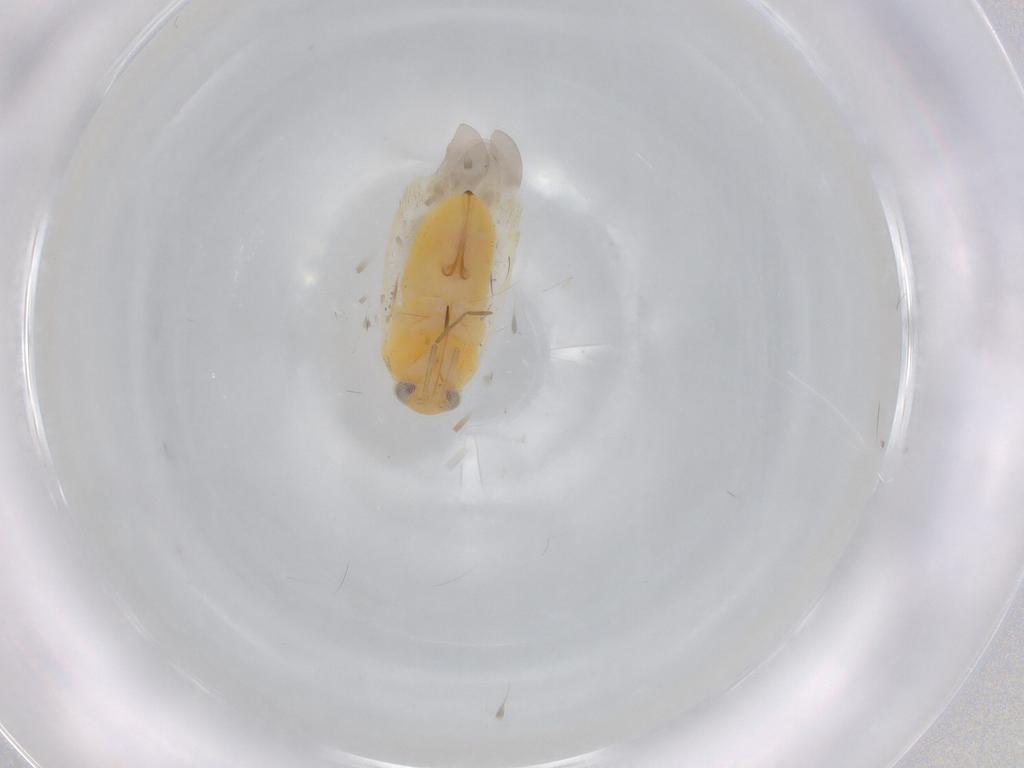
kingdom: Animalia
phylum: Arthropoda
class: Insecta
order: Hemiptera
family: Miridae
